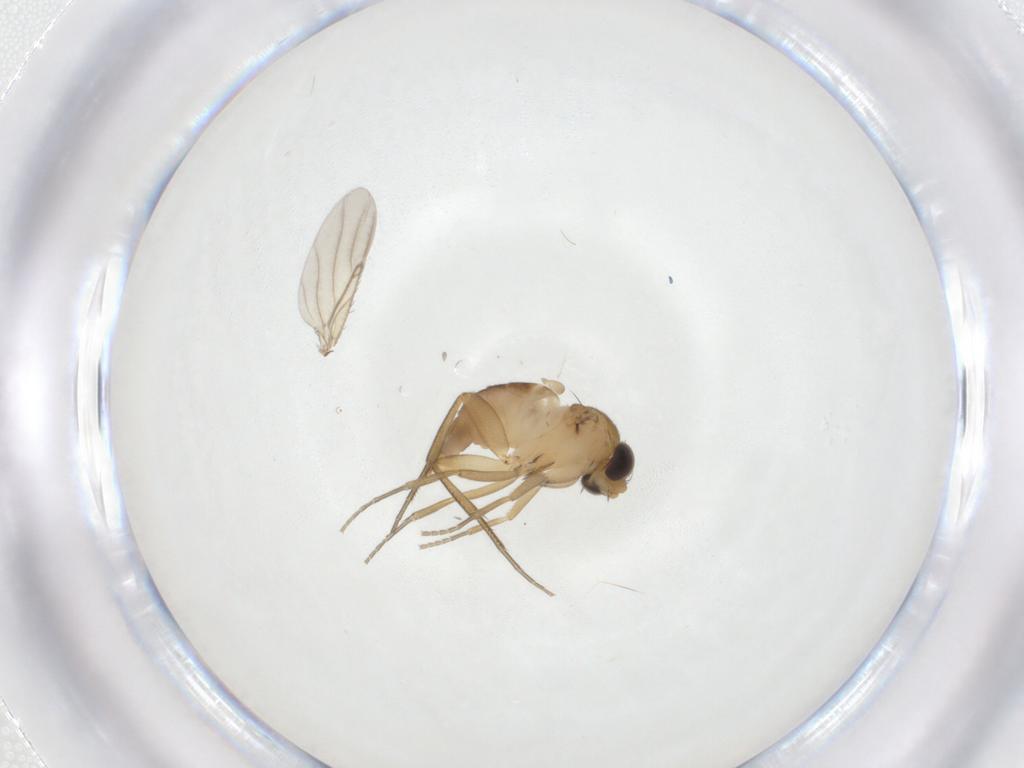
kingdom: Animalia
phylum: Arthropoda
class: Insecta
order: Diptera
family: Phoridae
